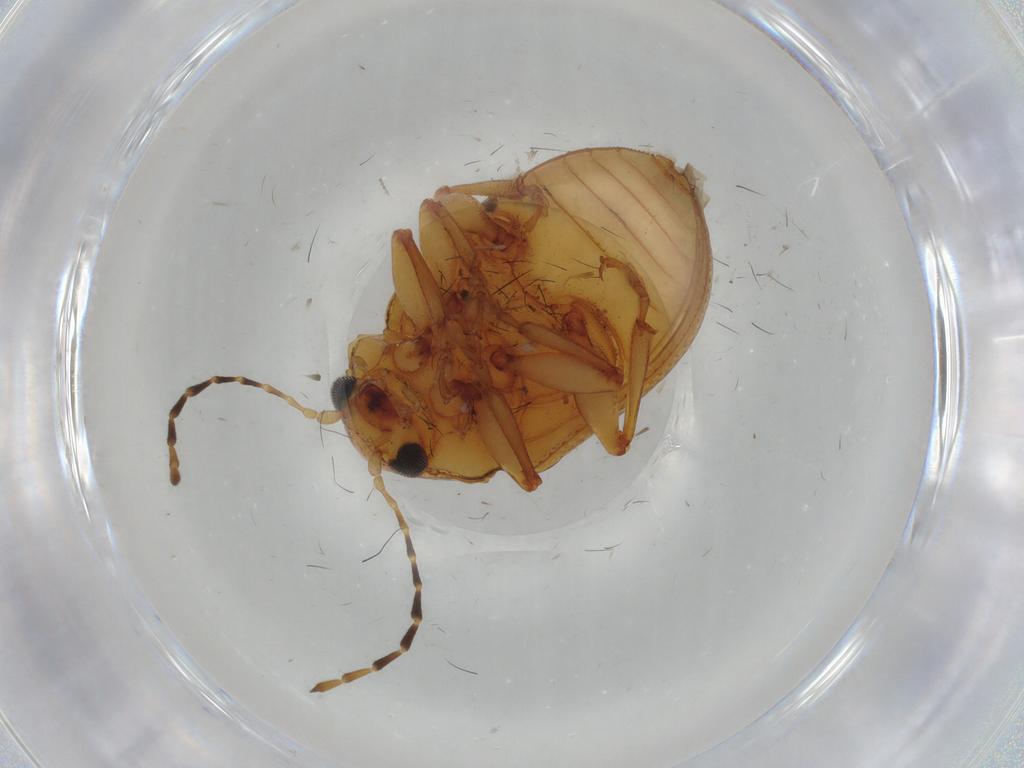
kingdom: Animalia
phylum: Arthropoda
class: Insecta
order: Coleoptera
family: Chrysomelidae
